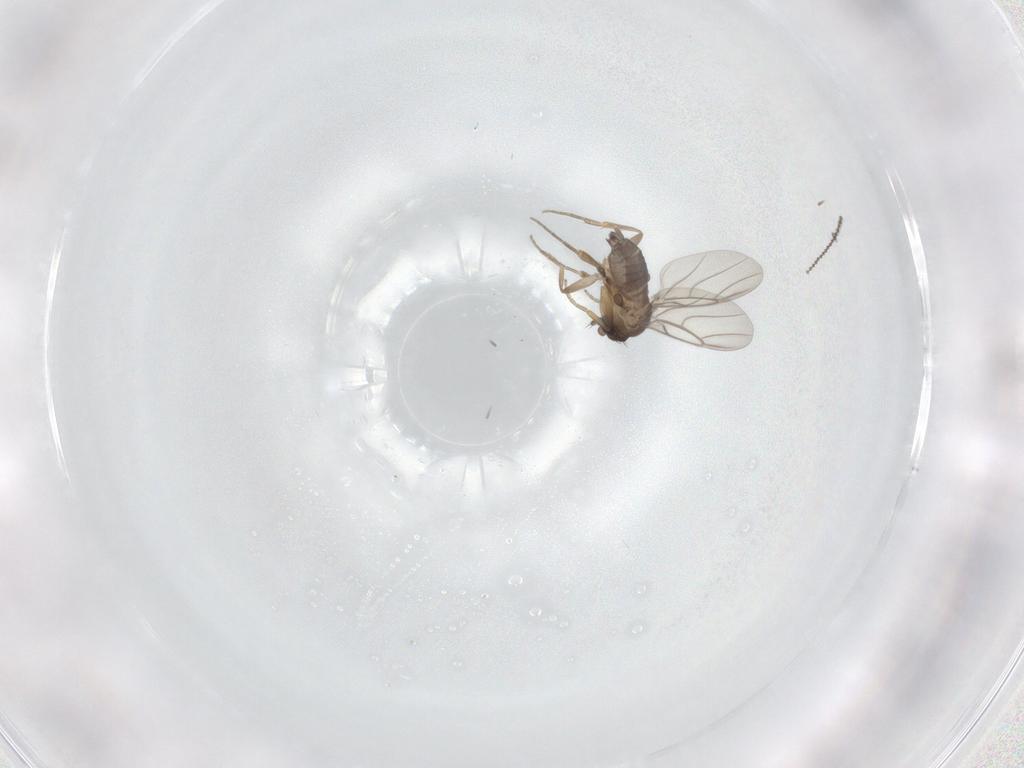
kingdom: Animalia
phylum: Arthropoda
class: Insecta
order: Diptera
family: Phoridae
